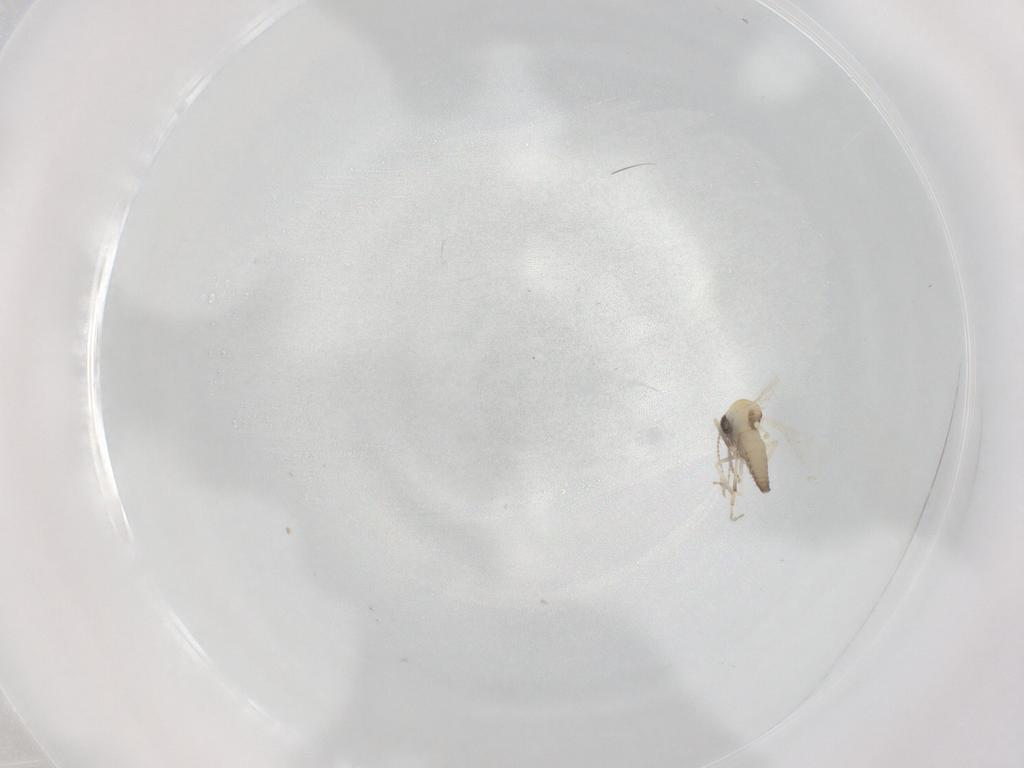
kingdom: Animalia
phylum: Arthropoda
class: Insecta
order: Diptera
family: Ceratopogonidae
